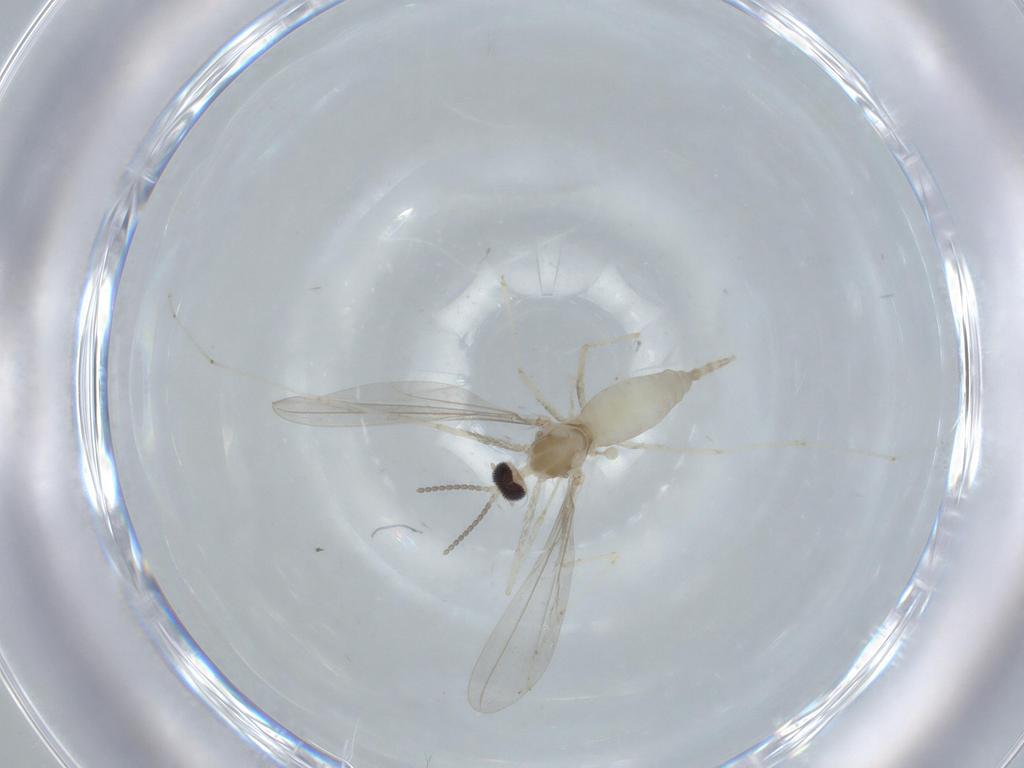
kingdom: Animalia
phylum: Arthropoda
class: Insecta
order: Diptera
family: Cecidomyiidae
